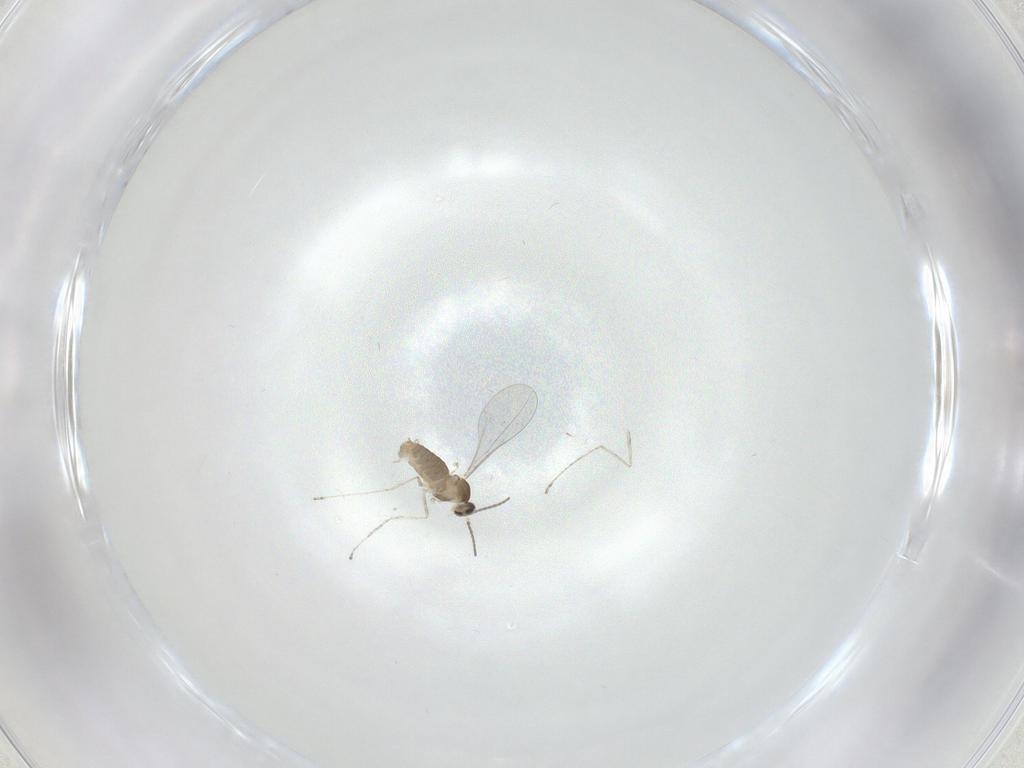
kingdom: Animalia
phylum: Arthropoda
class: Insecta
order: Diptera
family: Cecidomyiidae
